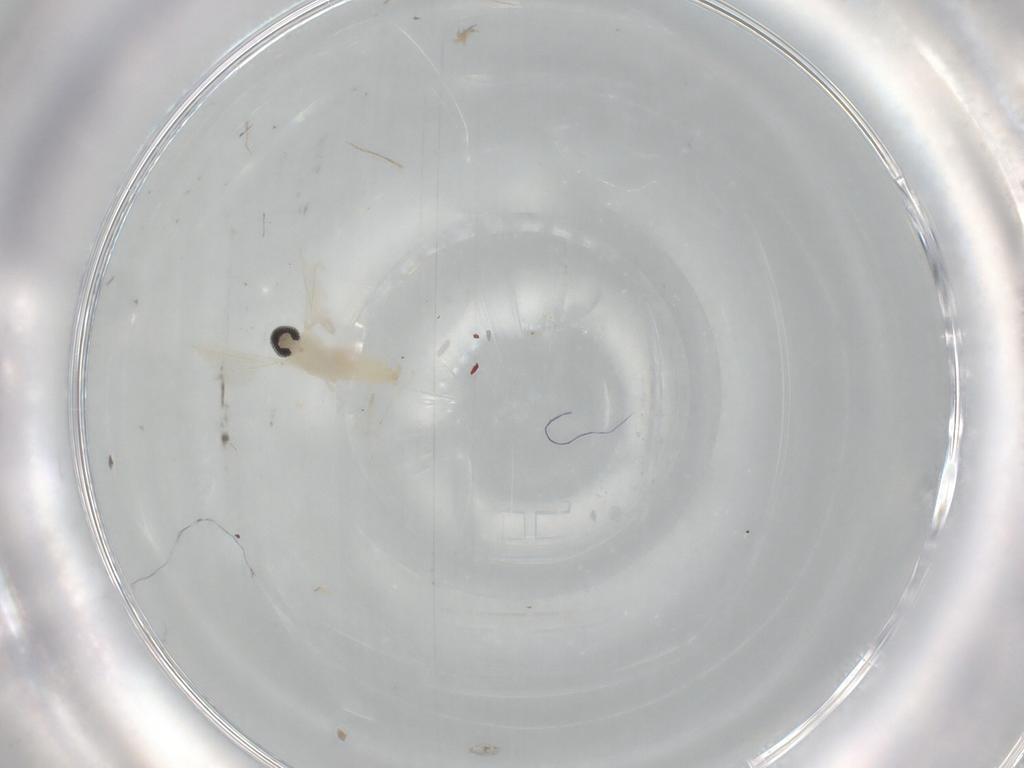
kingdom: Animalia
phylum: Arthropoda
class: Insecta
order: Diptera
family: Cecidomyiidae
